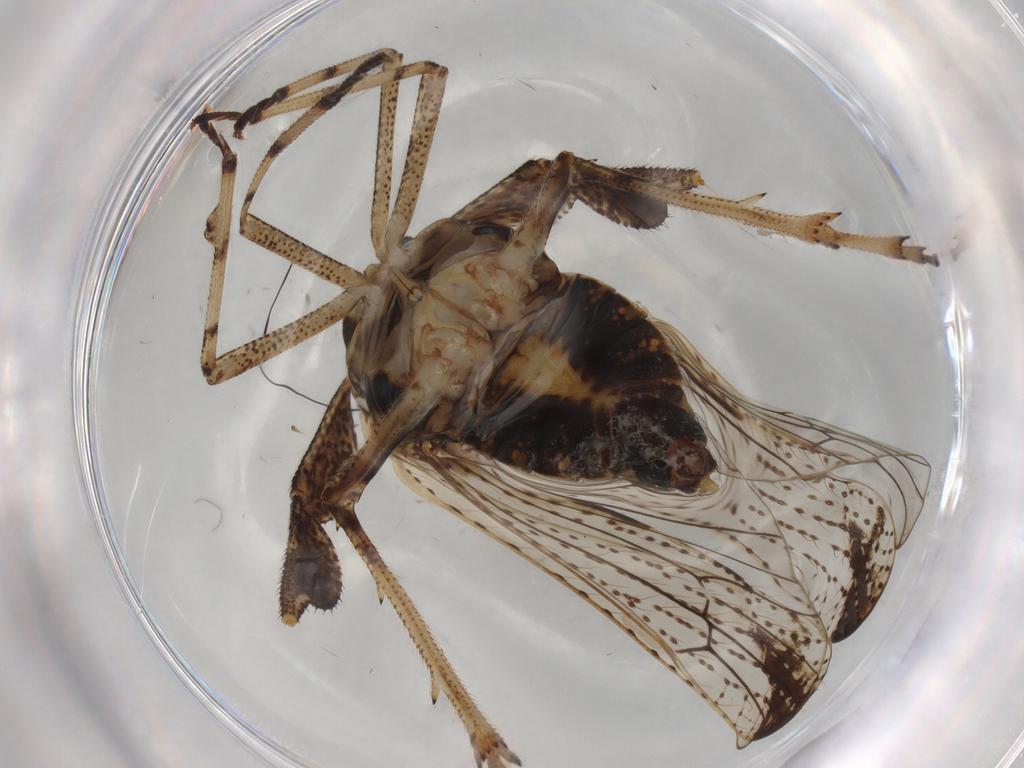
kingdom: Animalia
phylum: Arthropoda
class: Insecta
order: Hemiptera
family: Delphacidae
